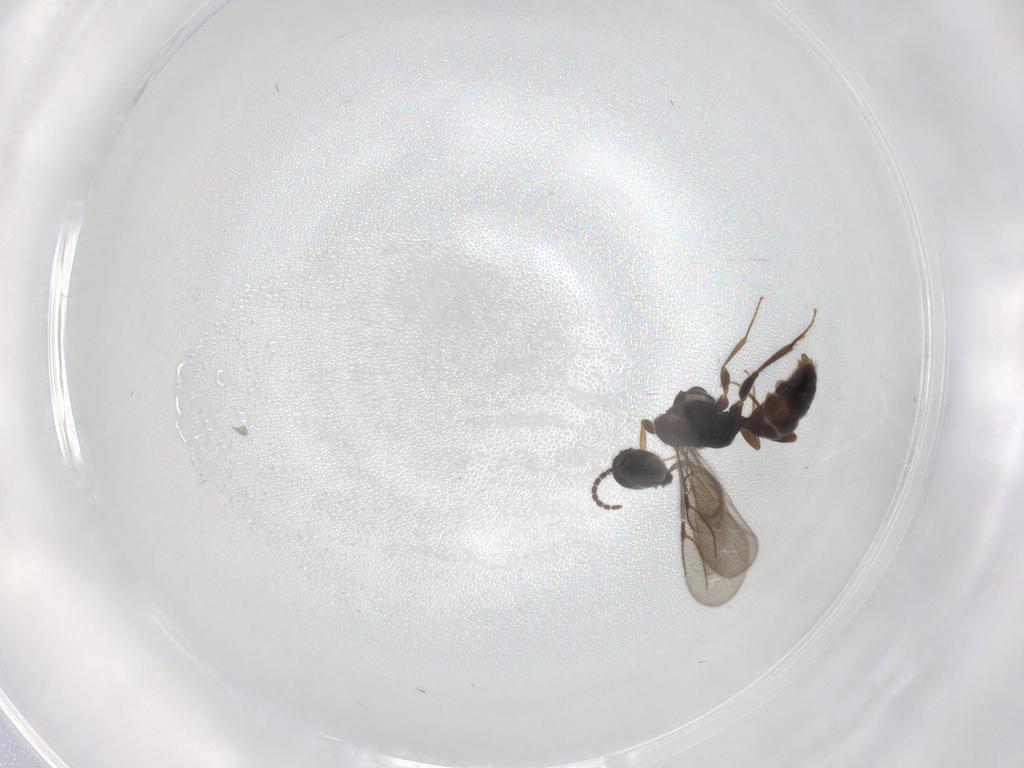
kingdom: Animalia
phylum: Arthropoda
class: Insecta
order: Hymenoptera
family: Bethylidae
